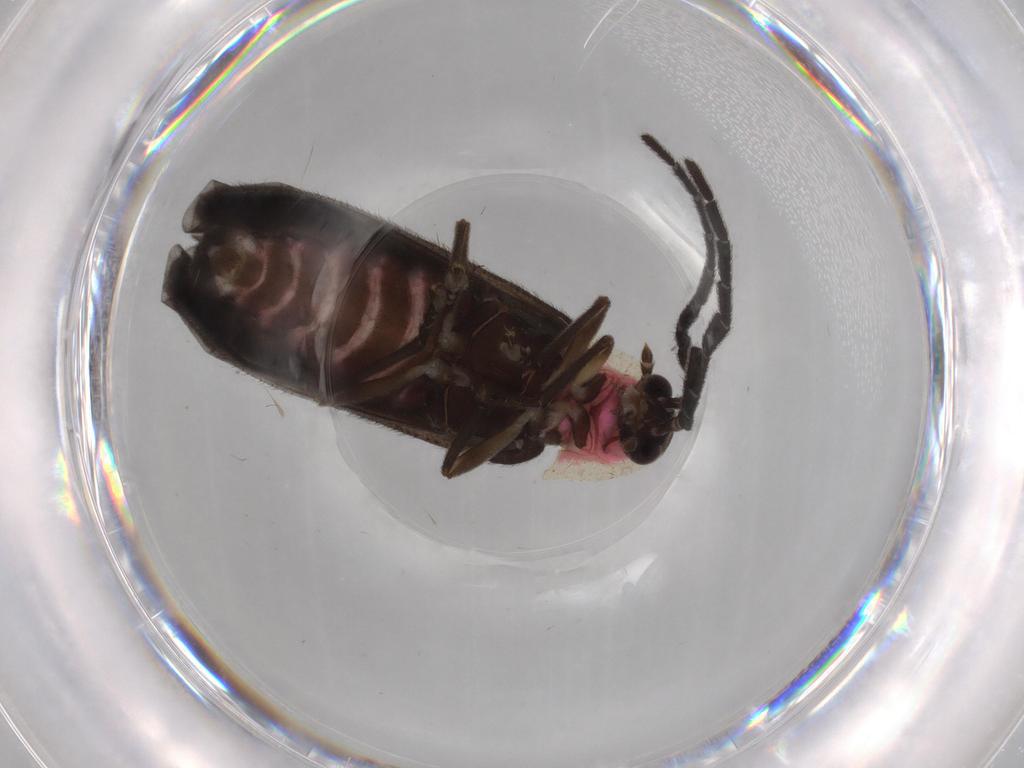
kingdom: Animalia
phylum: Arthropoda
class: Insecta
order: Coleoptera
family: Lampyridae
